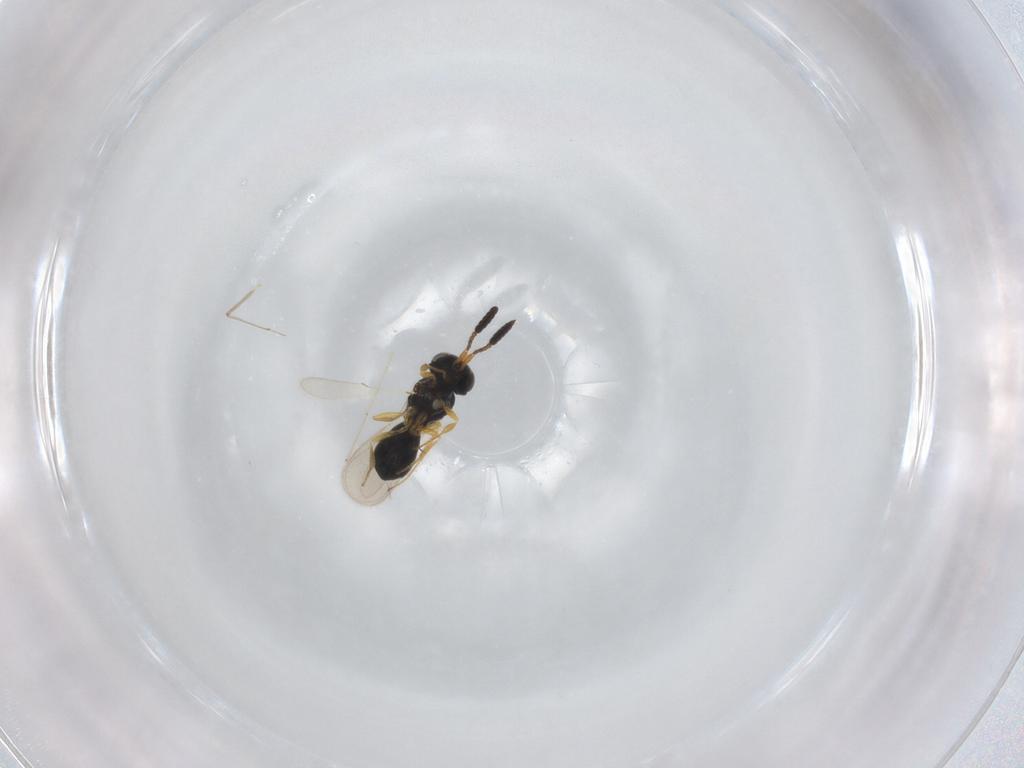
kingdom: Animalia
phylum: Arthropoda
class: Insecta
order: Hymenoptera
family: Scelionidae
